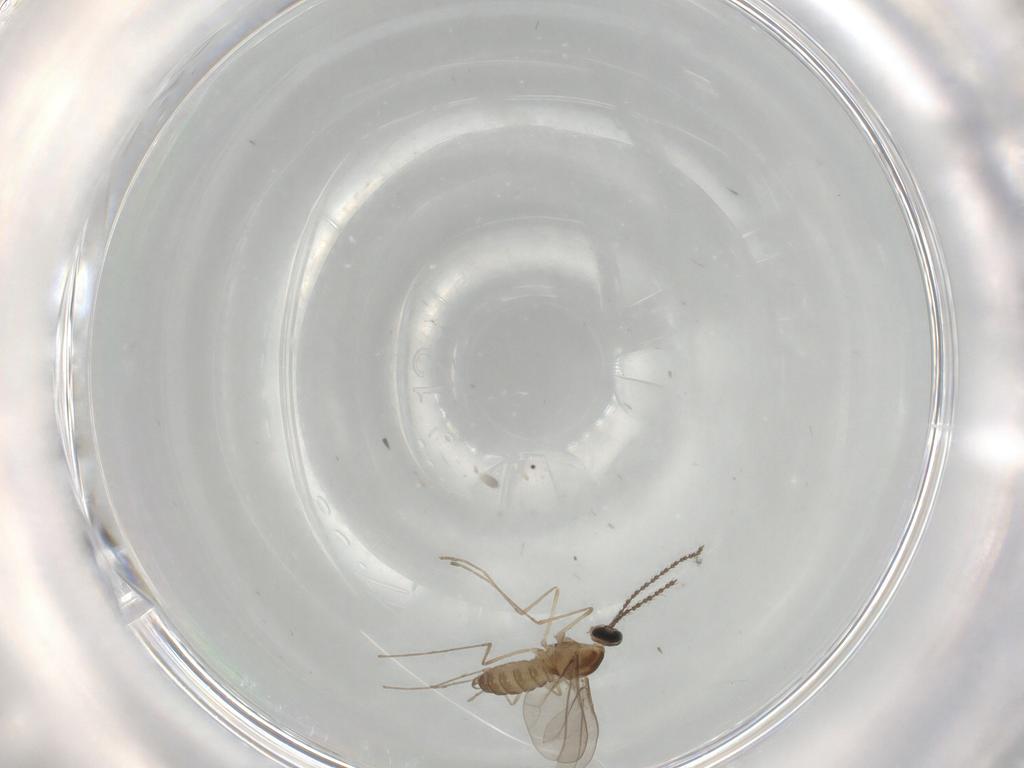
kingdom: Animalia
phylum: Arthropoda
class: Insecta
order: Diptera
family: Cecidomyiidae
